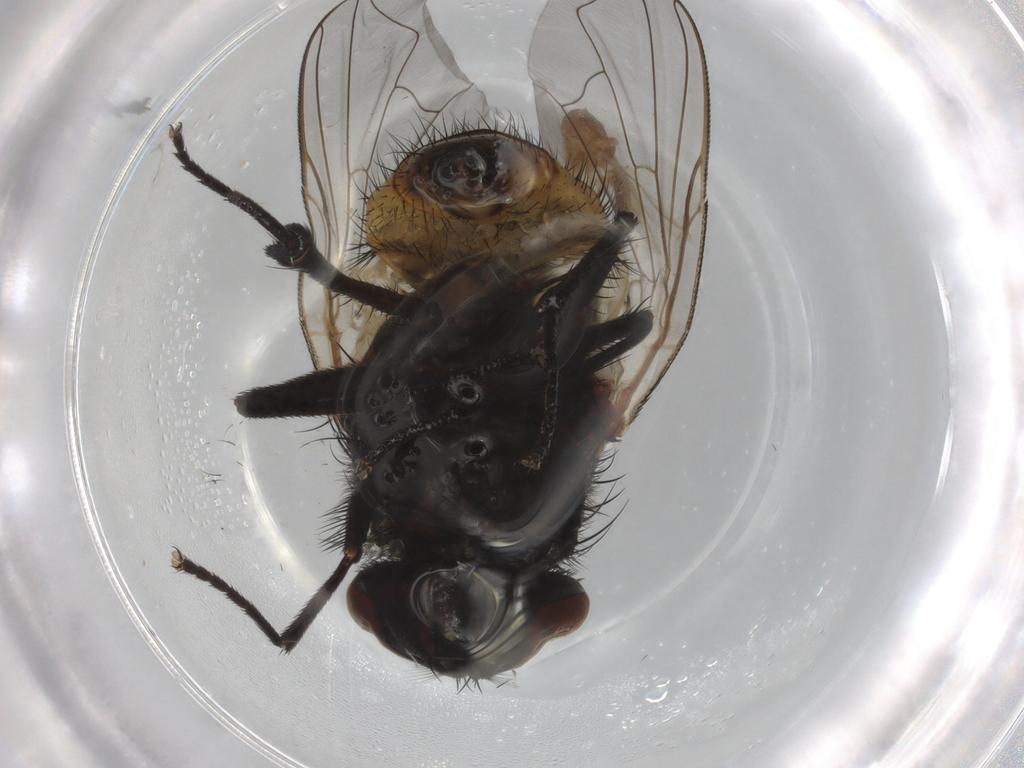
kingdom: Animalia
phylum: Arthropoda
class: Insecta
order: Diptera
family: Ceratopogonidae
